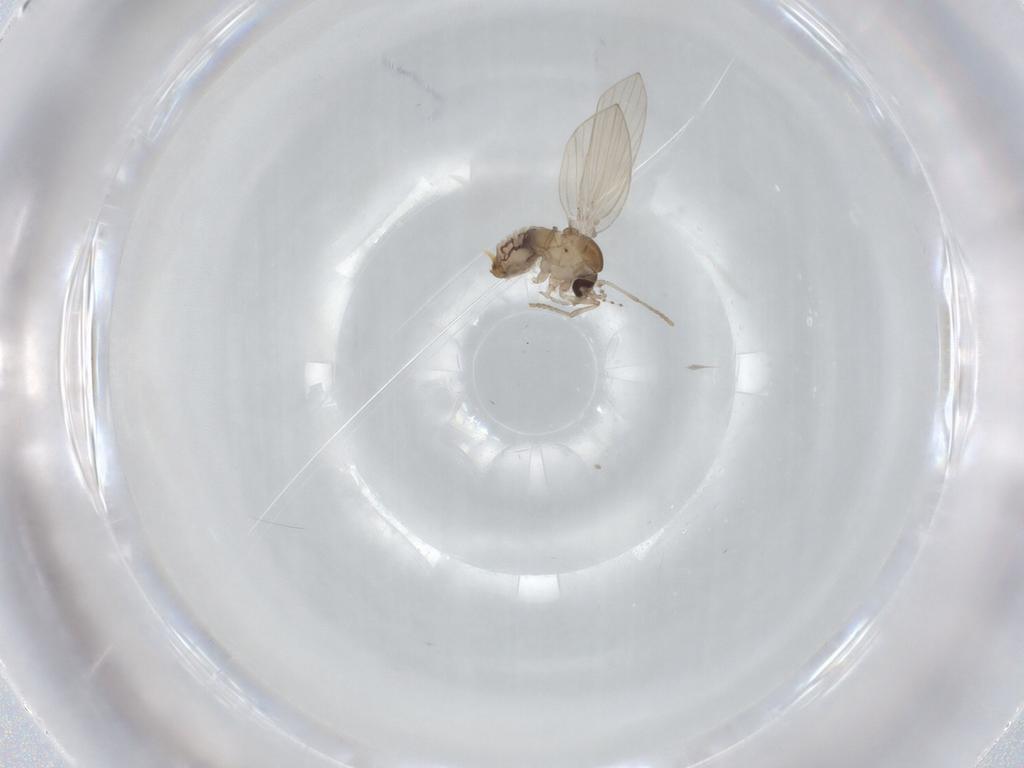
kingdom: Animalia
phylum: Arthropoda
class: Insecta
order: Diptera
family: Psychodidae
